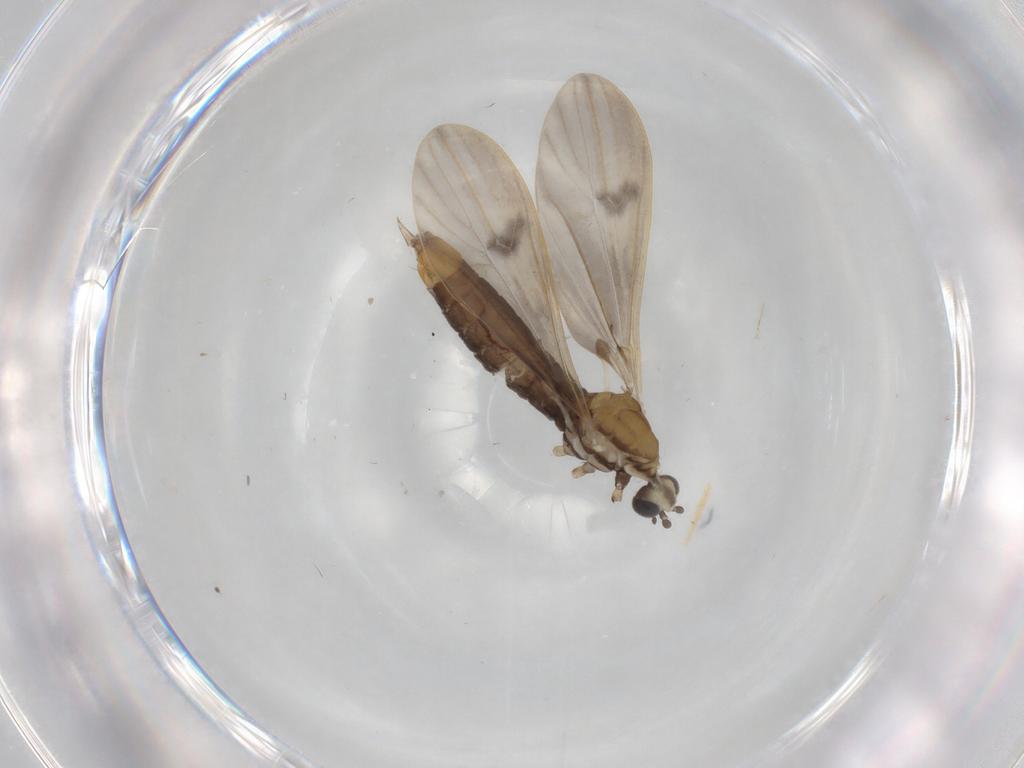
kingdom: Animalia
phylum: Arthropoda
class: Insecta
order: Diptera
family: Limoniidae
